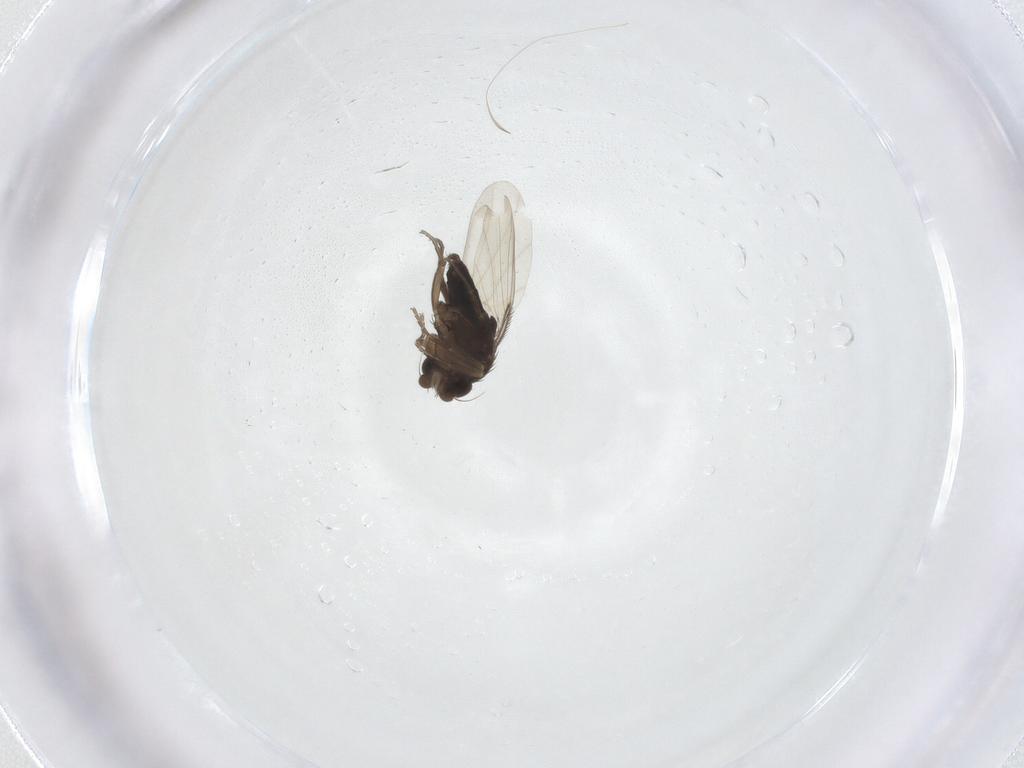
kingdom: Animalia
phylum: Arthropoda
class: Insecta
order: Diptera
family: Phoridae
